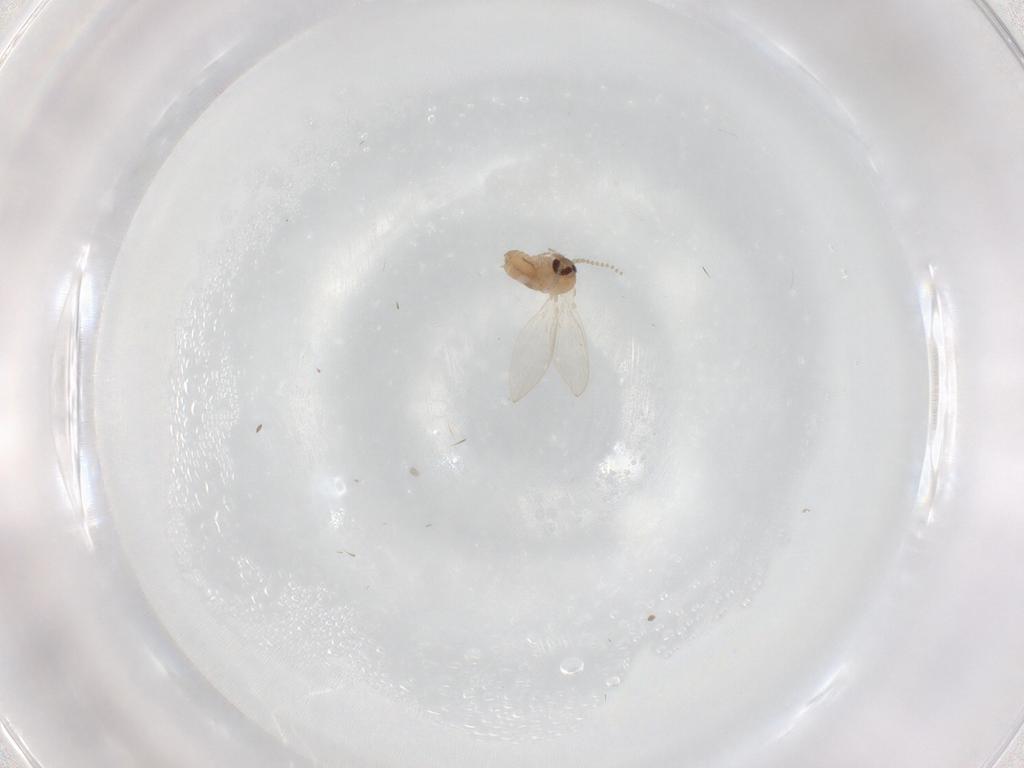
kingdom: Animalia
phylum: Arthropoda
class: Insecta
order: Diptera
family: Psychodidae
